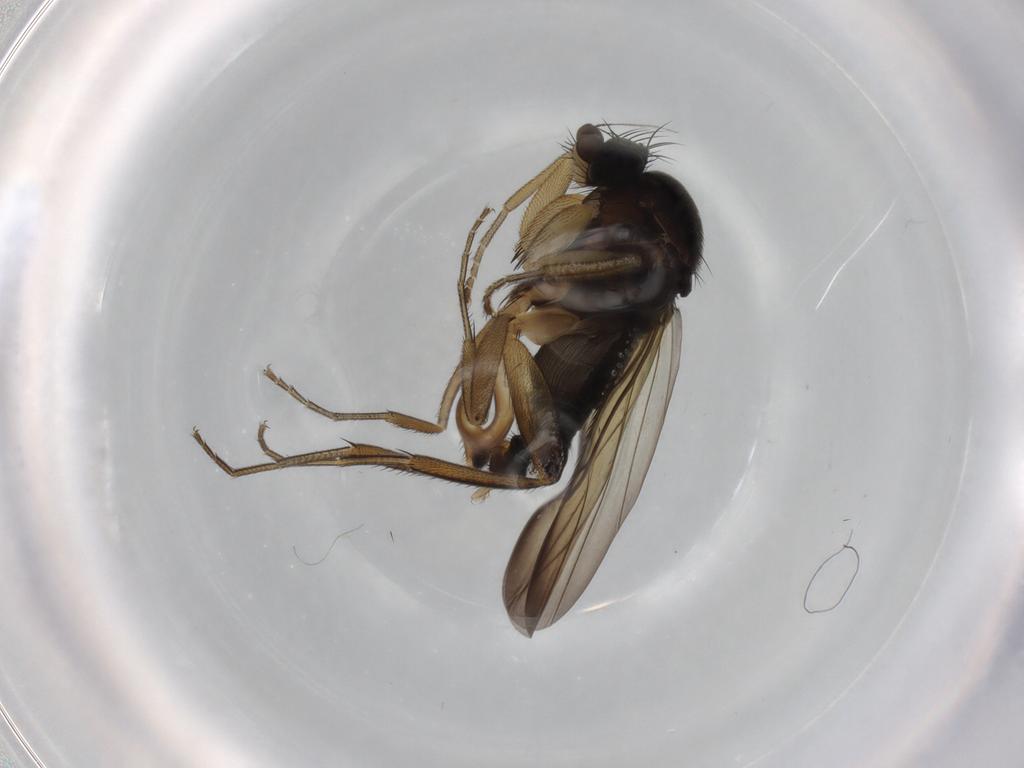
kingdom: Animalia
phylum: Arthropoda
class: Insecta
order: Diptera
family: Phoridae
